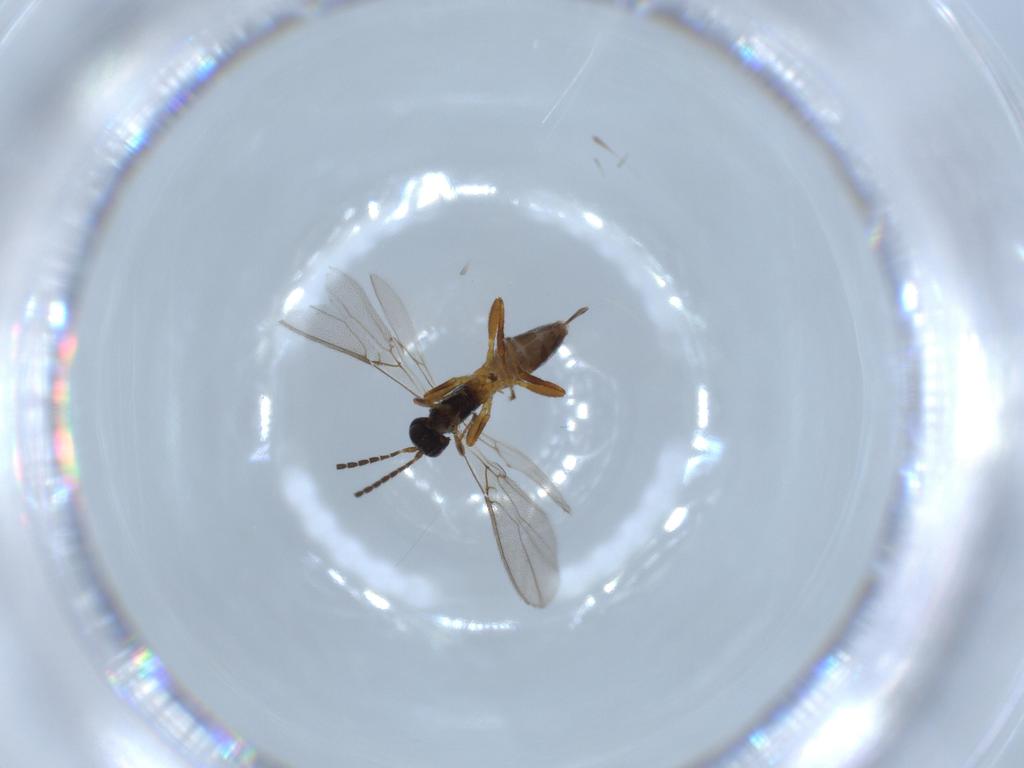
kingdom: Animalia
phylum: Arthropoda
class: Insecta
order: Hymenoptera
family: Braconidae
